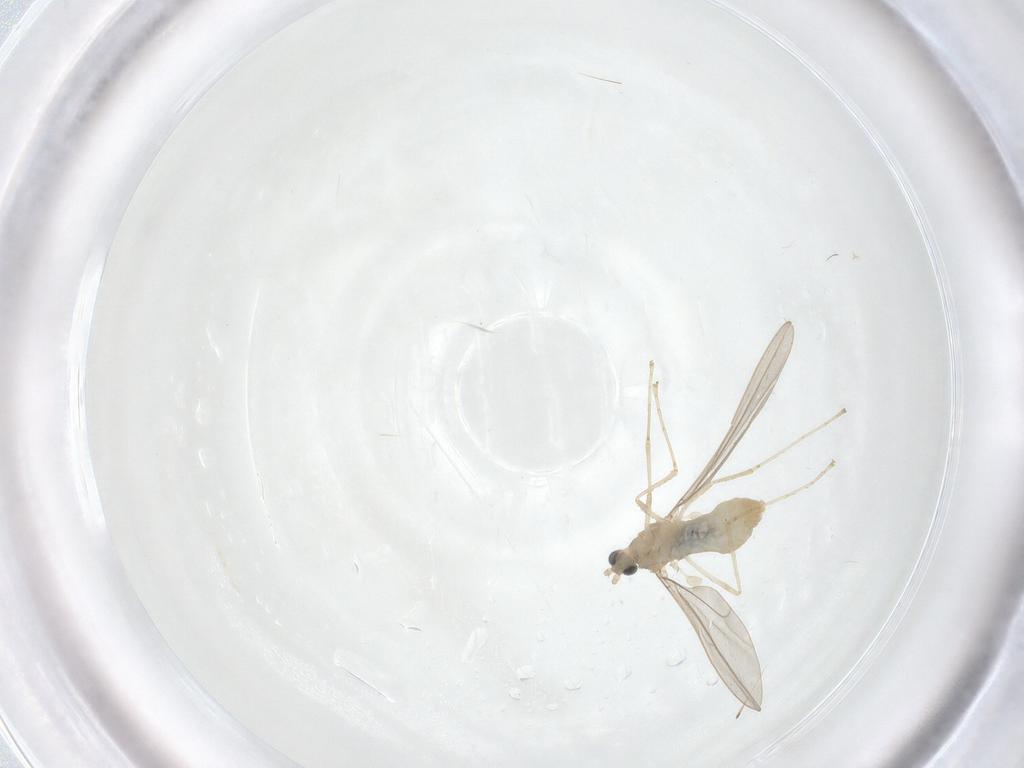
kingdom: Animalia
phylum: Arthropoda
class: Insecta
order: Diptera
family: Cecidomyiidae
